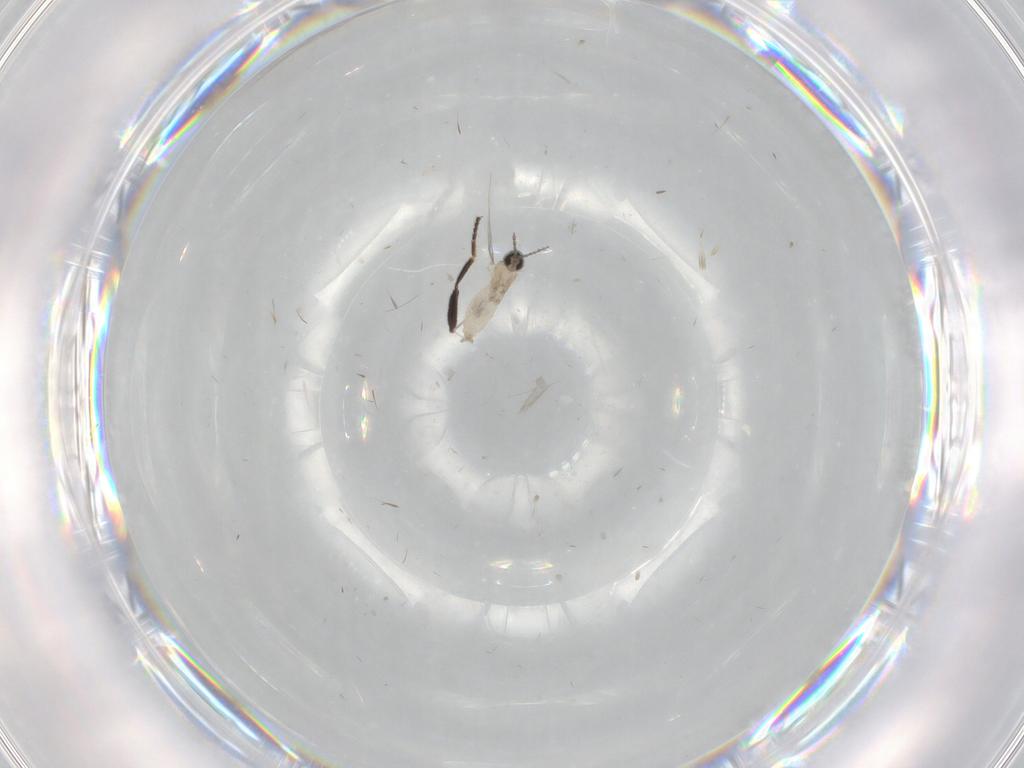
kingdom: Animalia
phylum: Arthropoda
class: Insecta
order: Diptera
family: Cecidomyiidae
